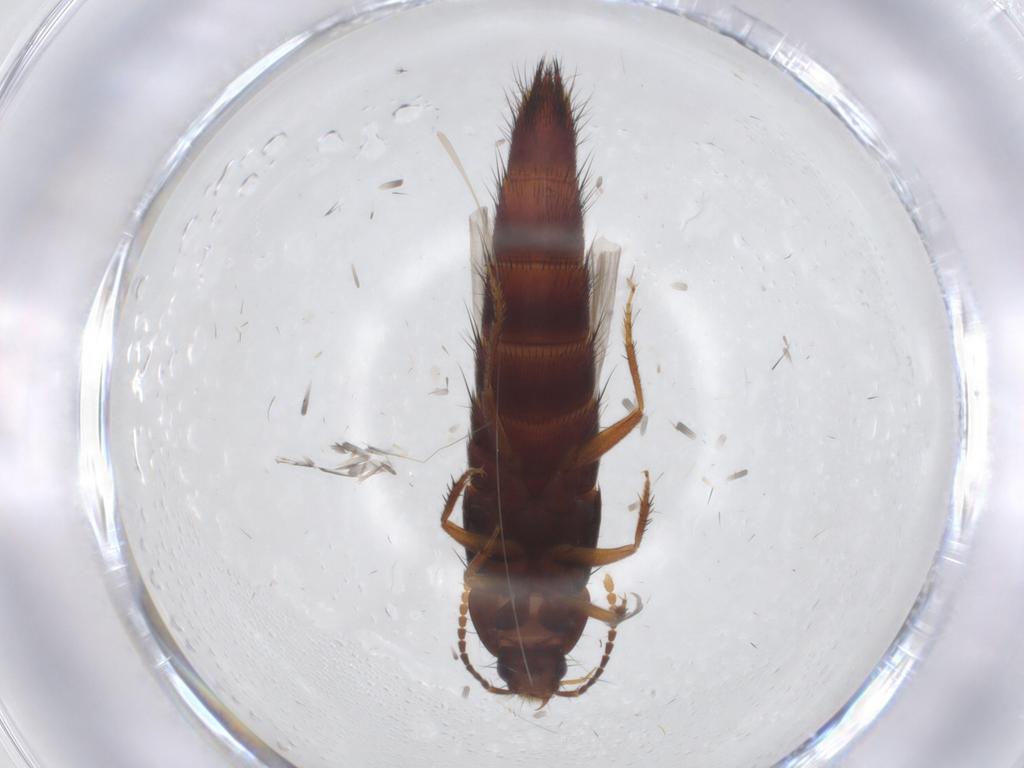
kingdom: Animalia
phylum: Arthropoda
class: Insecta
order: Coleoptera
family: Staphylinidae
